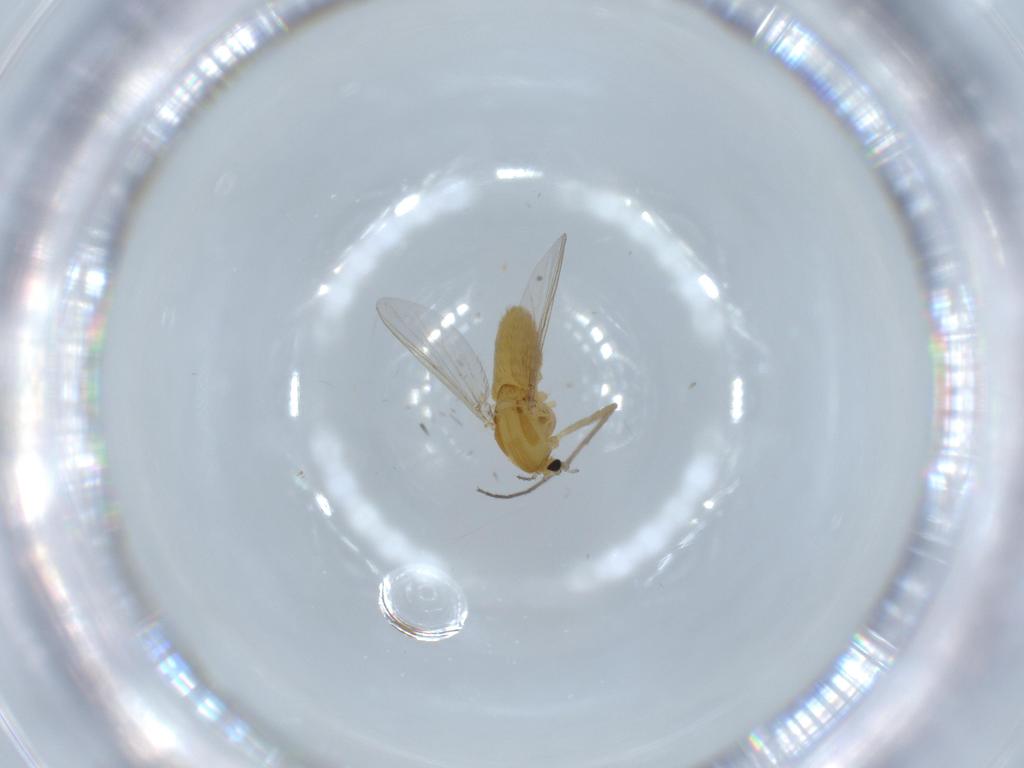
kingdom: Animalia
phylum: Arthropoda
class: Insecta
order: Diptera
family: Chironomidae
